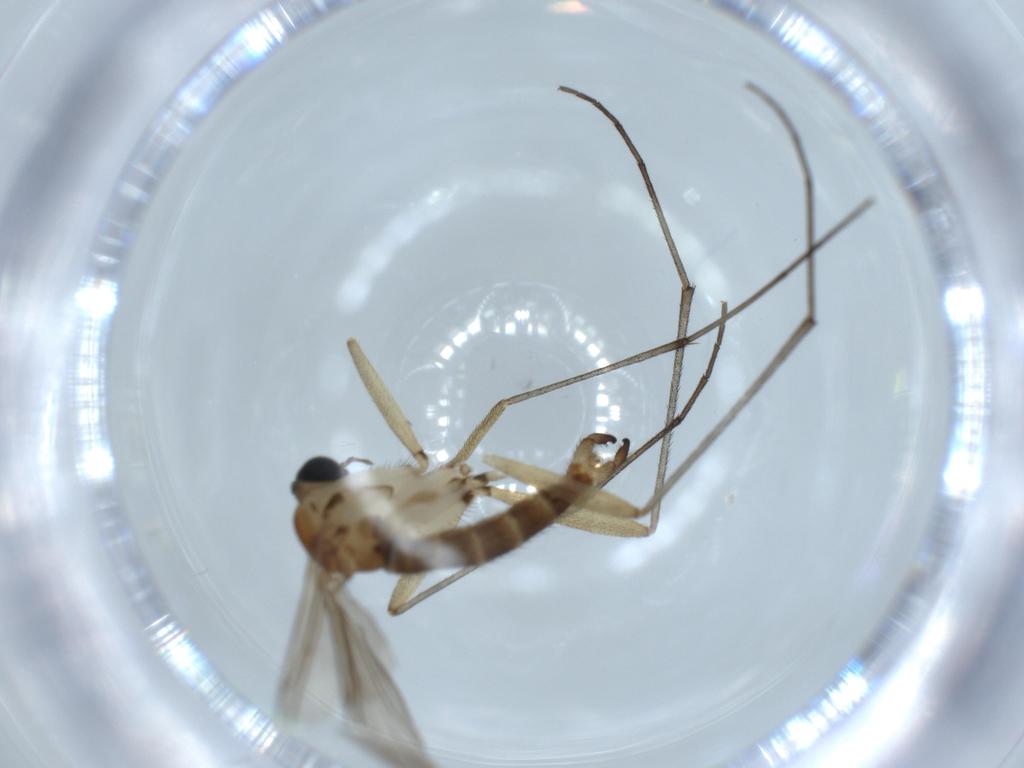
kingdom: Animalia
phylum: Arthropoda
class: Insecta
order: Diptera
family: Sciaridae
